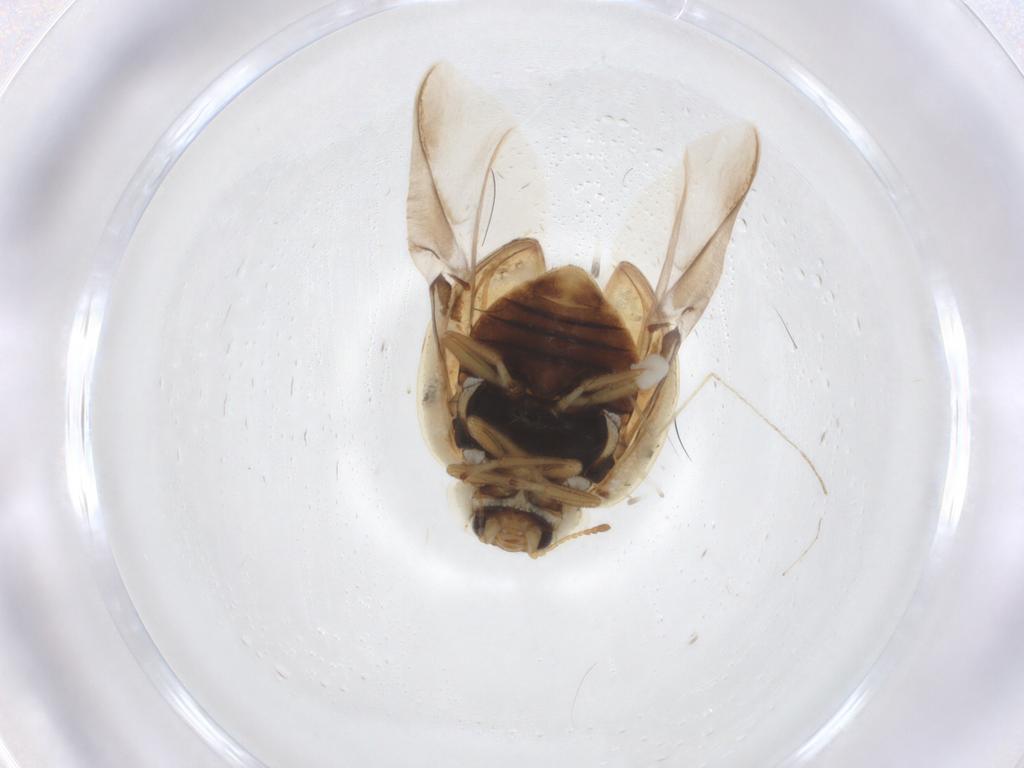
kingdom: Animalia
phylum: Arthropoda
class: Insecta
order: Coleoptera
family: Coccinellidae
